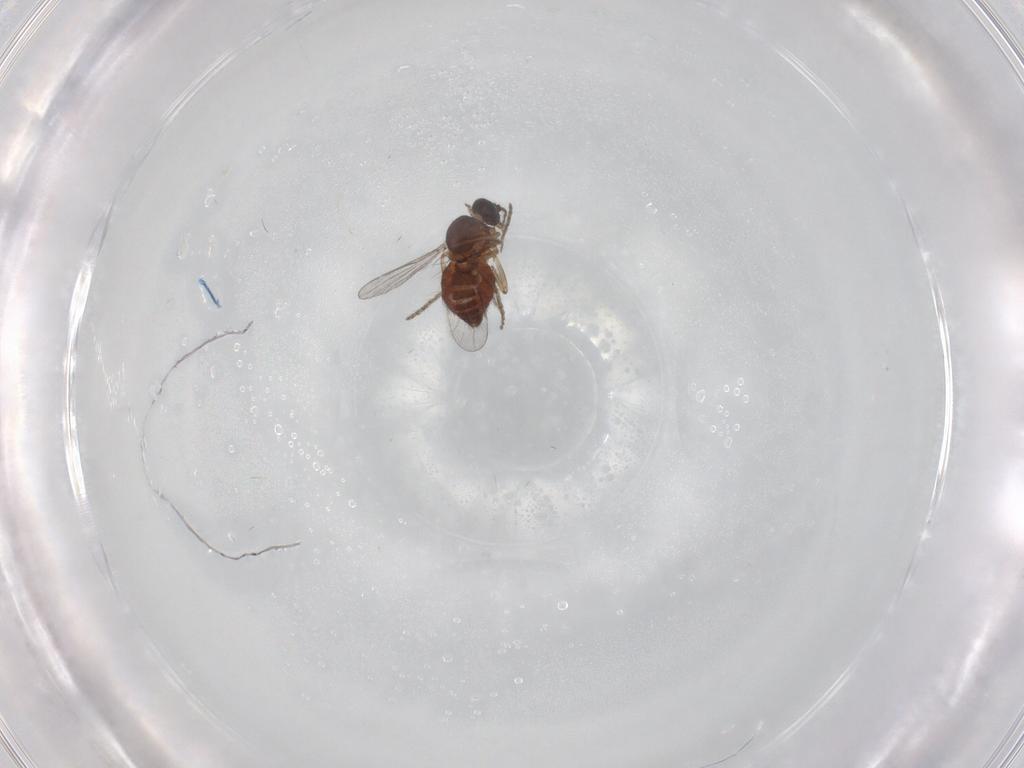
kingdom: Animalia
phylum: Arthropoda
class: Insecta
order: Diptera
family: Ceratopogonidae
